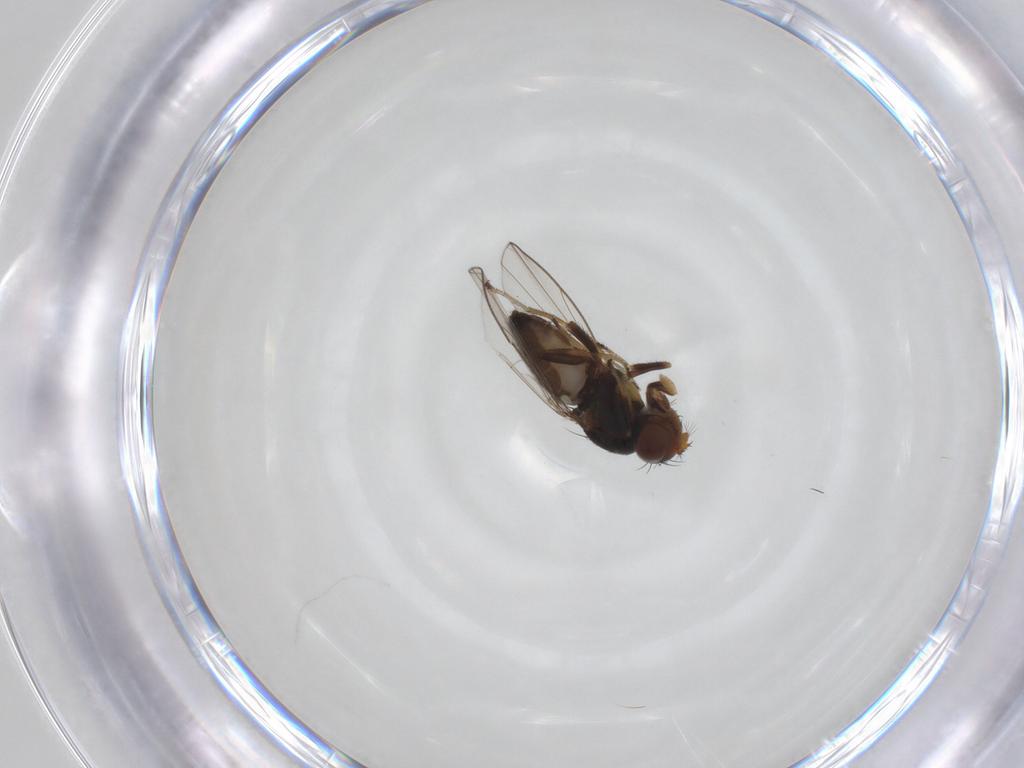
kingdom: Animalia
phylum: Arthropoda
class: Insecta
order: Diptera
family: Ephydridae
